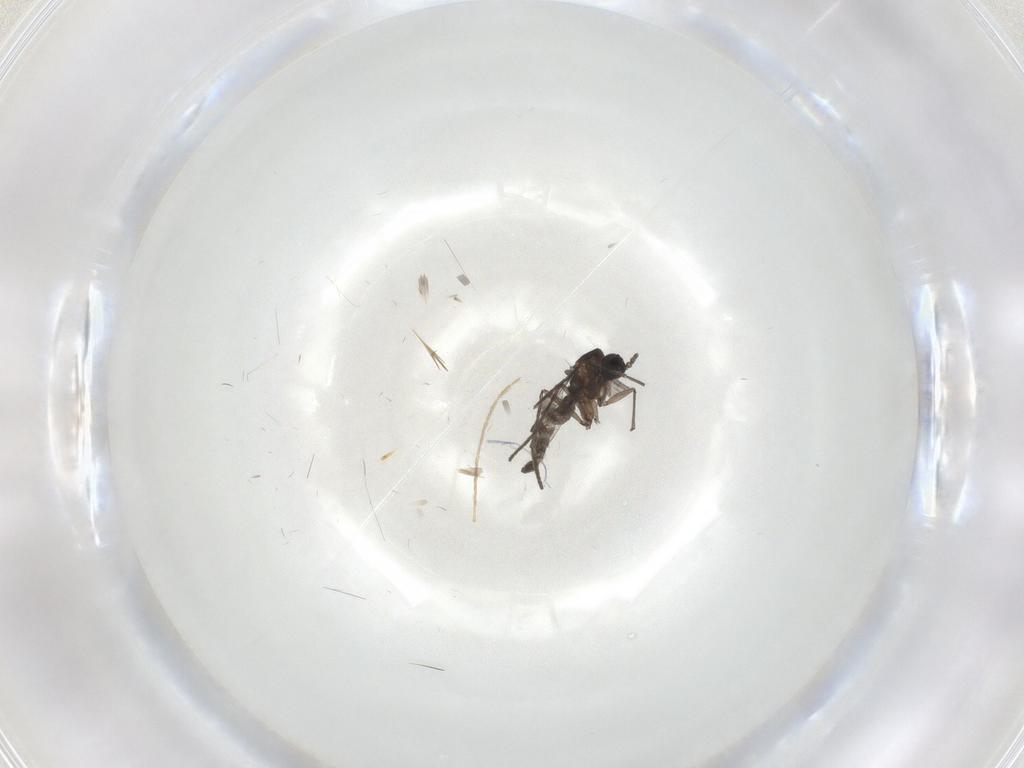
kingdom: Animalia
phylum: Arthropoda
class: Insecta
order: Diptera
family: Chironomidae
